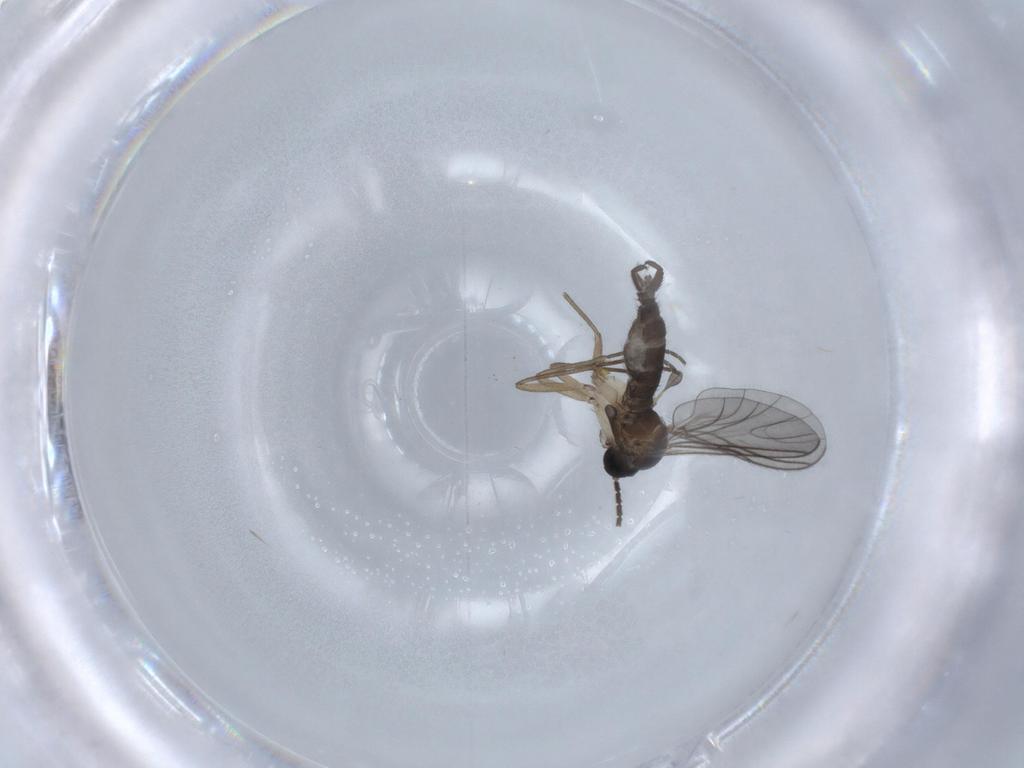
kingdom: Animalia
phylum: Arthropoda
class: Insecta
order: Diptera
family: Sciaridae
